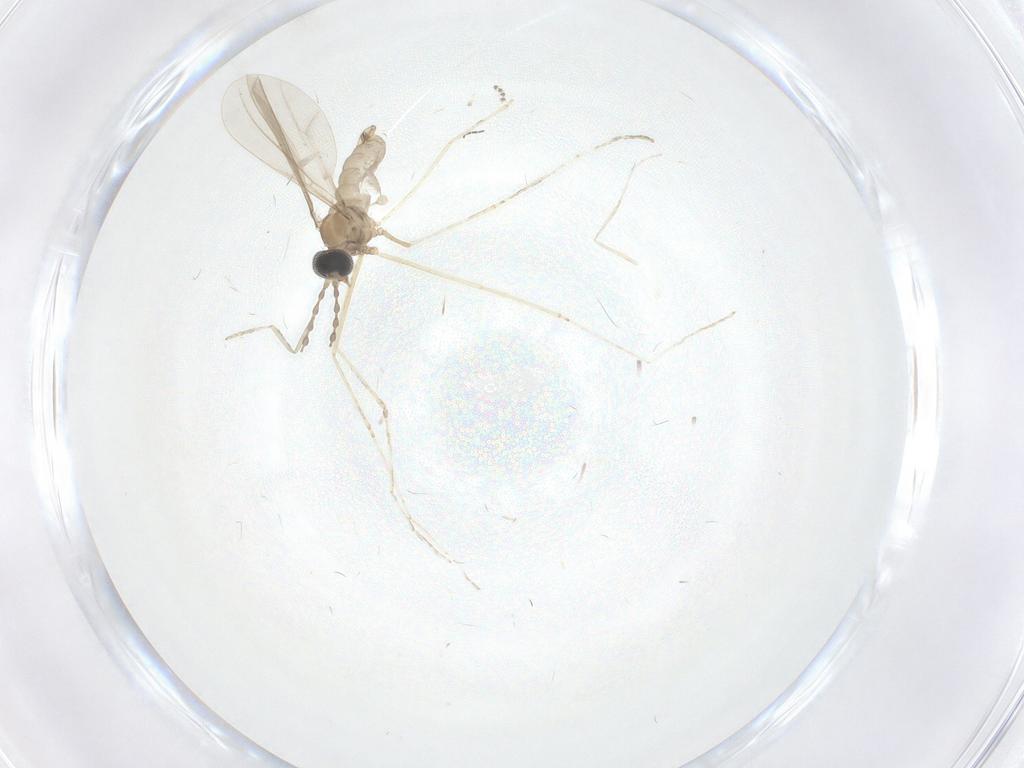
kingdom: Animalia
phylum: Arthropoda
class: Insecta
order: Diptera
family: Cecidomyiidae
